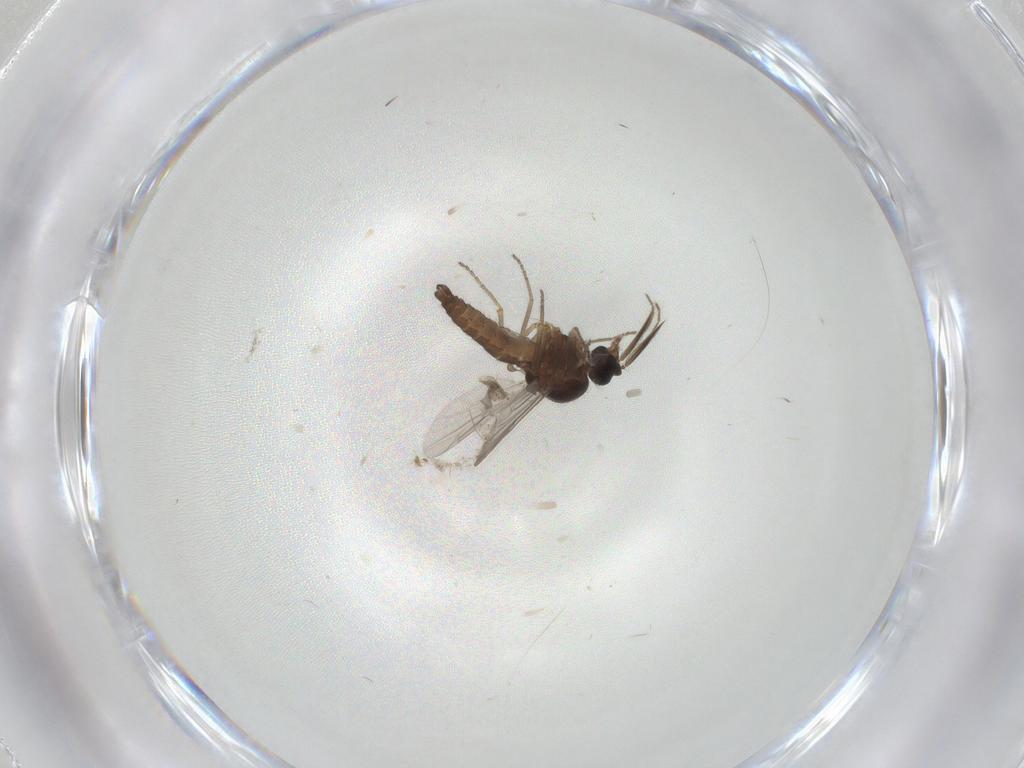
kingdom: Animalia
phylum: Arthropoda
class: Insecta
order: Diptera
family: Ceratopogonidae
